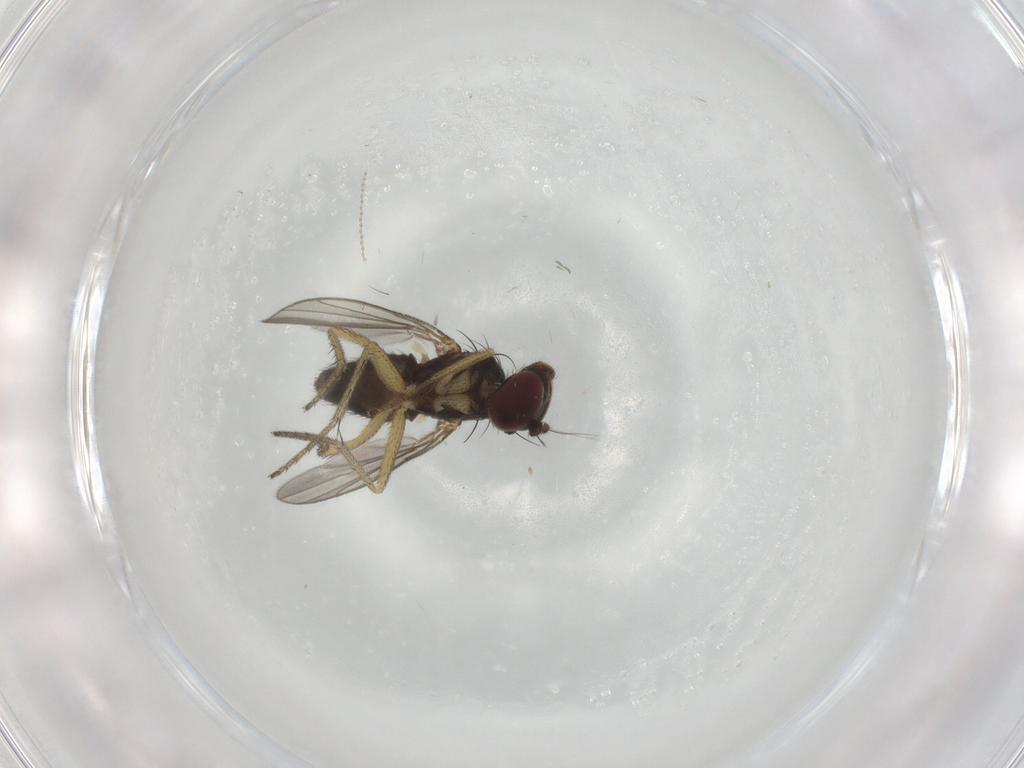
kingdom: Animalia
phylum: Arthropoda
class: Insecta
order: Diptera
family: Dolichopodidae
